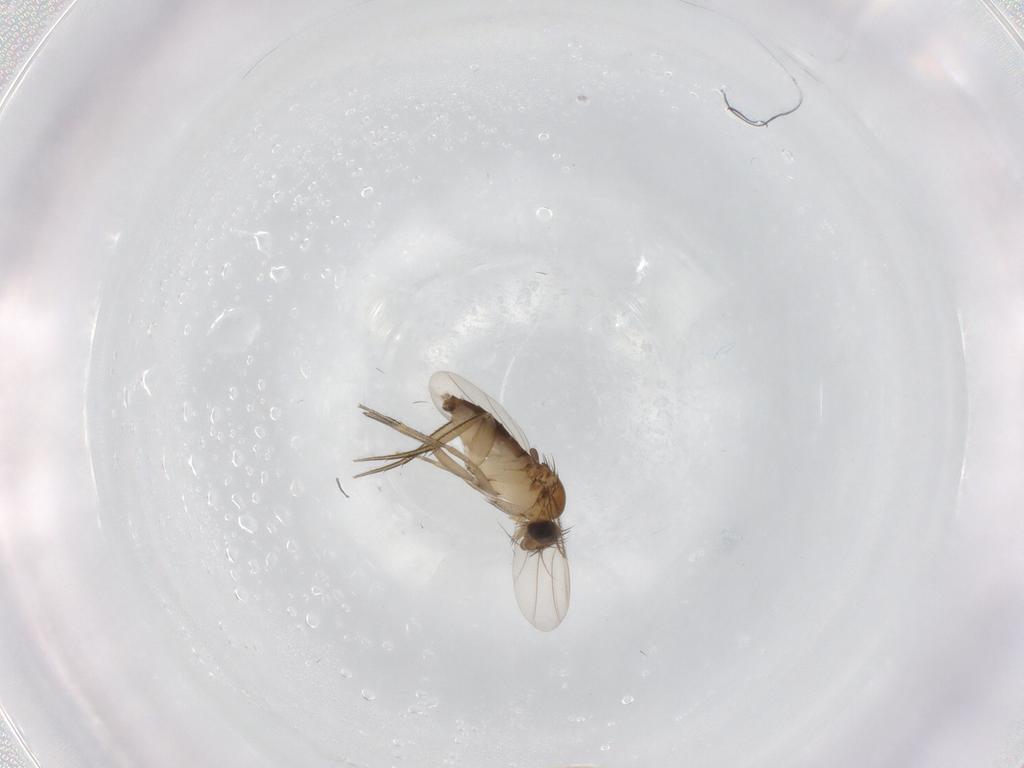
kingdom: Animalia
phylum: Arthropoda
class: Insecta
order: Diptera
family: Phoridae
